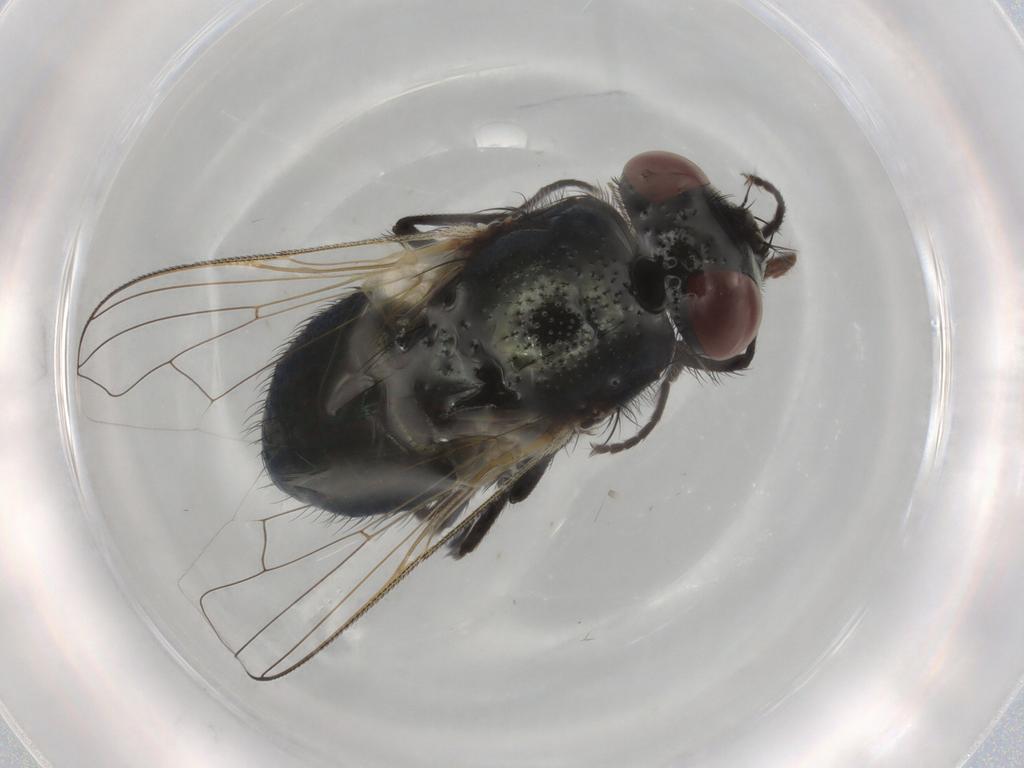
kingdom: Animalia
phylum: Arthropoda
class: Insecta
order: Diptera
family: Muscidae
